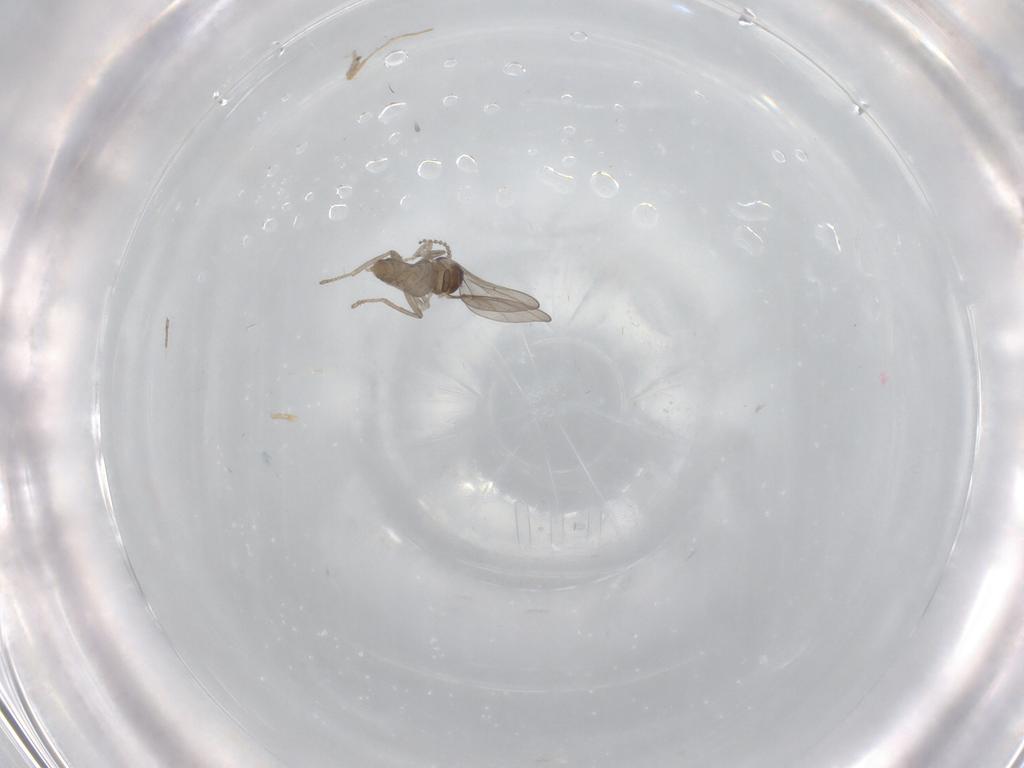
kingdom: Animalia
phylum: Arthropoda
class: Insecta
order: Diptera
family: Cecidomyiidae
